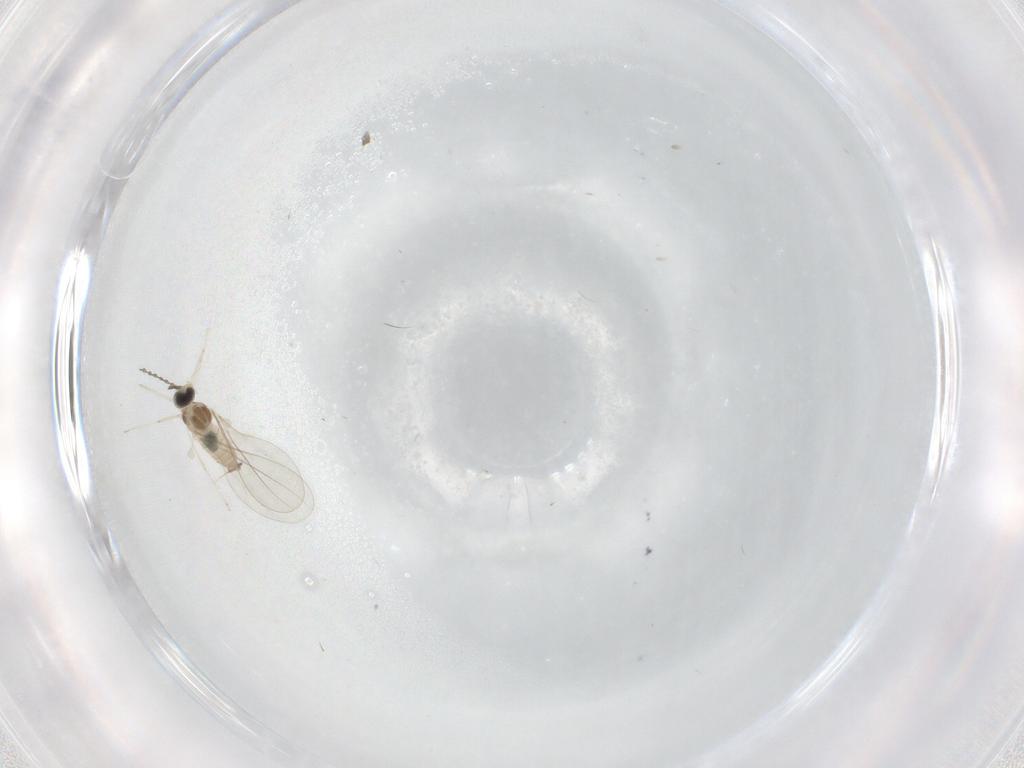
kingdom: Animalia
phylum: Arthropoda
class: Insecta
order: Diptera
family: Cecidomyiidae
